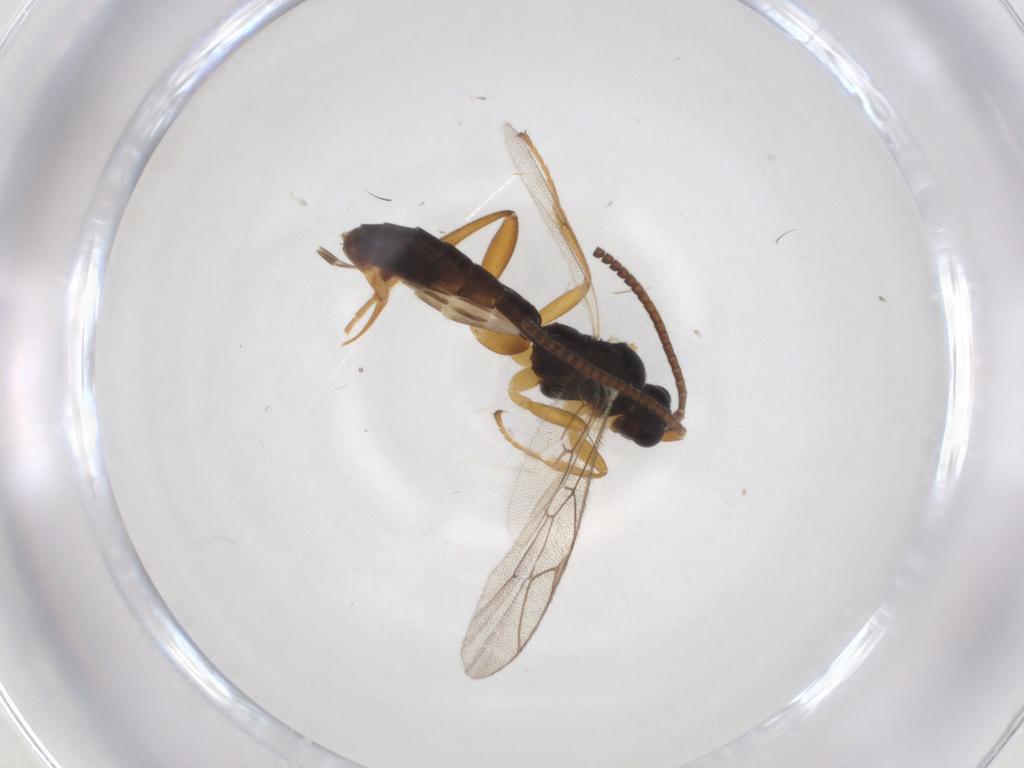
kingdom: Animalia
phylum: Arthropoda
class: Insecta
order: Hymenoptera
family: Ichneumonidae
